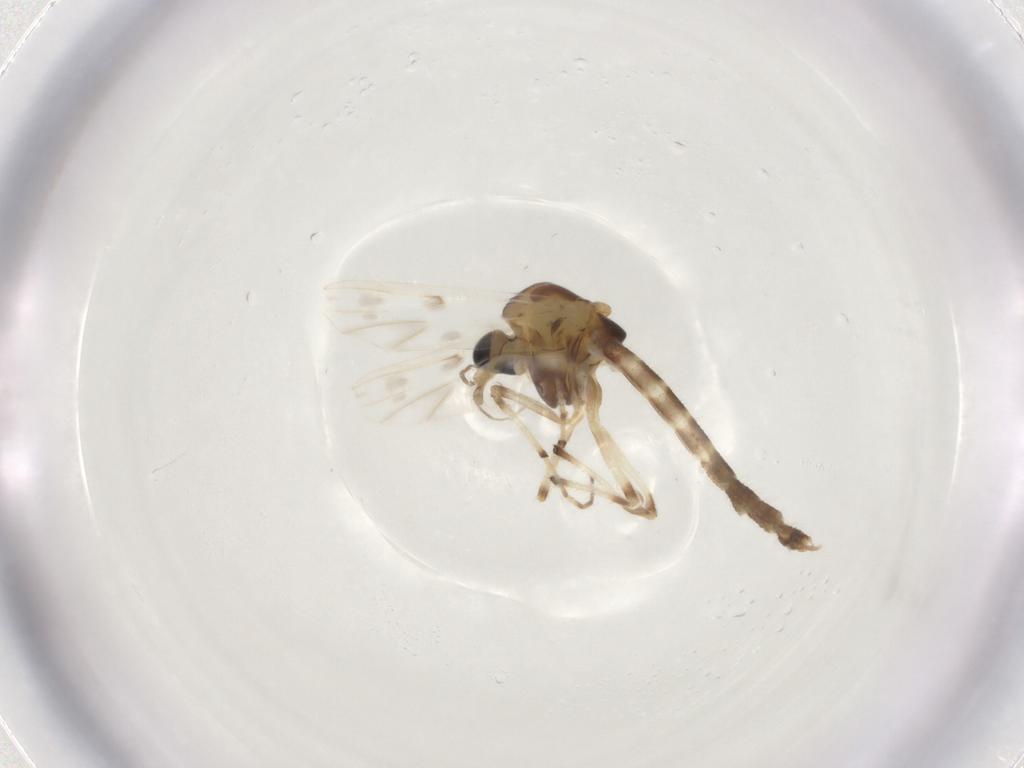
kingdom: Animalia
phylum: Arthropoda
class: Insecta
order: Diptera
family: Chironomidae
